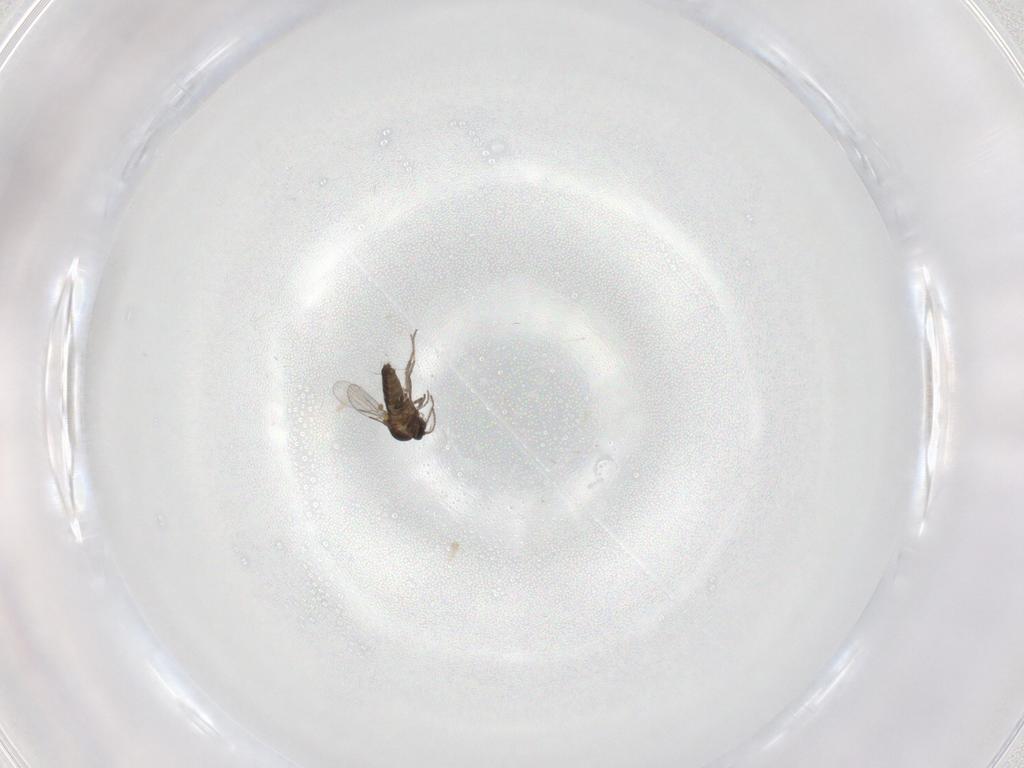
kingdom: Animalia
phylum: Arthropoda
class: Insecta
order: Diptera
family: Ceratopogonidae
